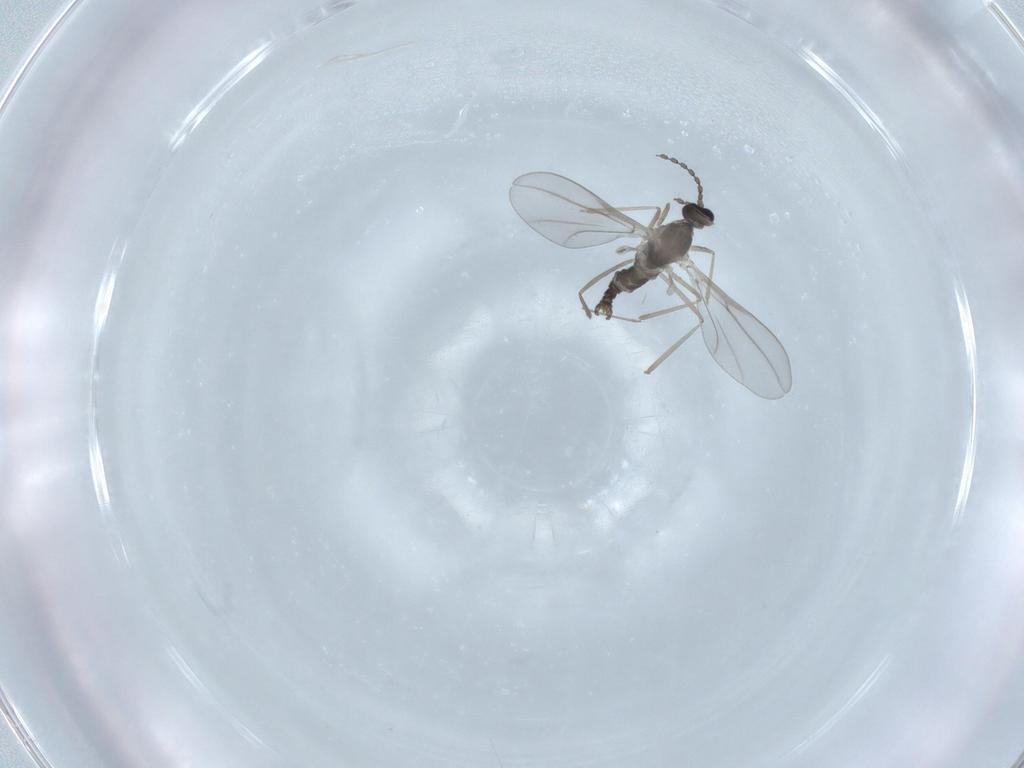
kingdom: Animalia
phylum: Arthropoda
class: Insecta
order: Diptera
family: Cecidomyiidae
